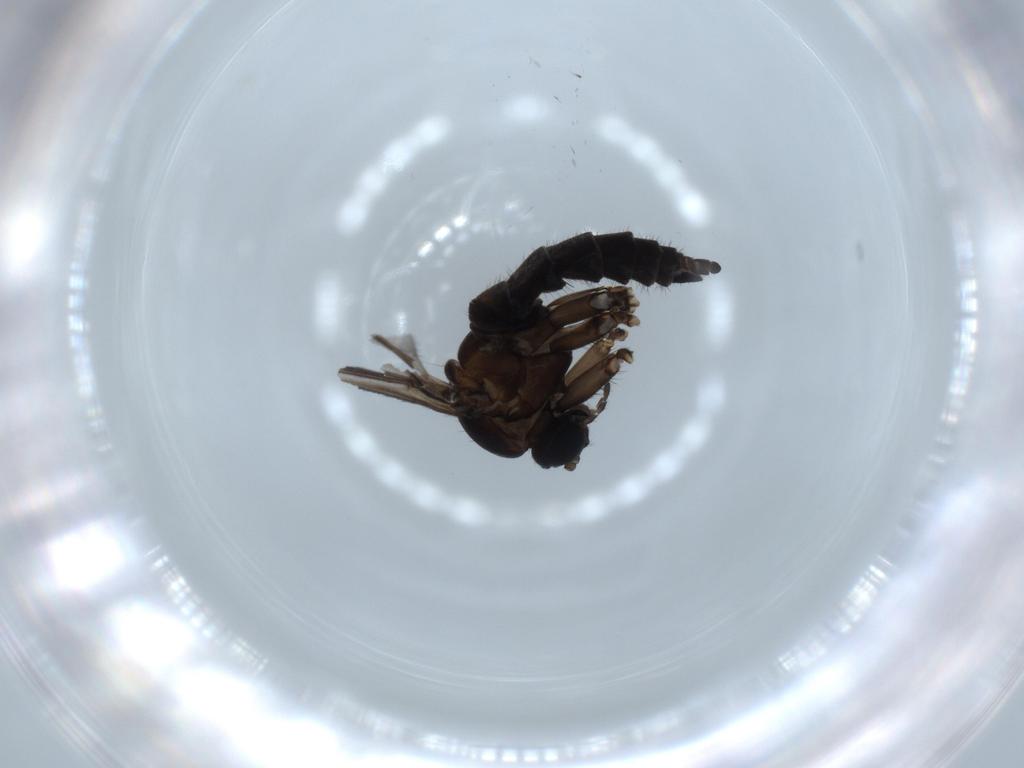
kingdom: Animalia
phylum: Arthropoda
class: Insecta
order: Diptera
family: Sciaridae
